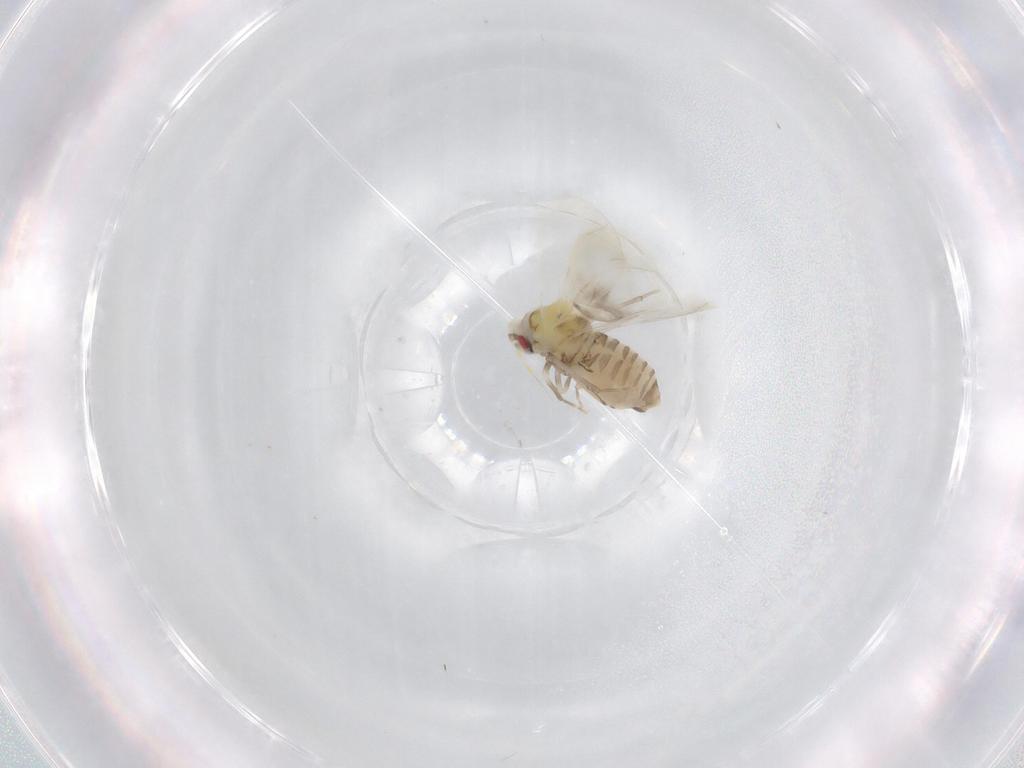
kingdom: Animalia
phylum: Arthropoda
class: Insecta
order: Hemiptera
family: Aleyrodidae
